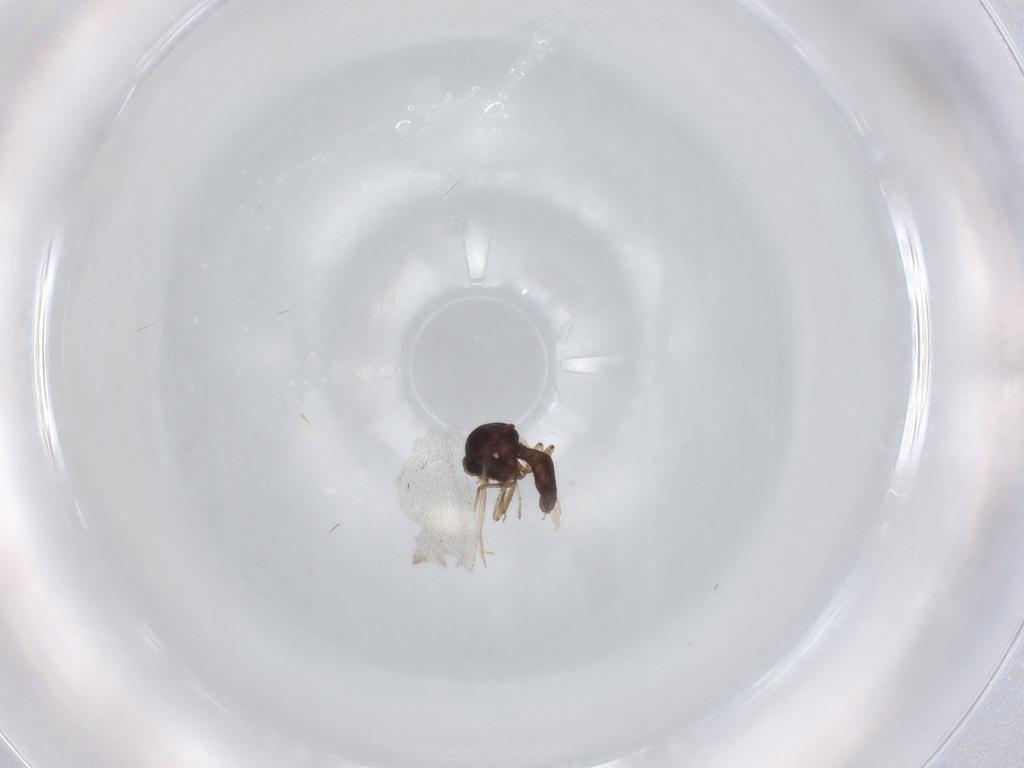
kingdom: Animalia
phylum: Arthropoda
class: Insecta
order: Diptera
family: Ceratopogonidae
